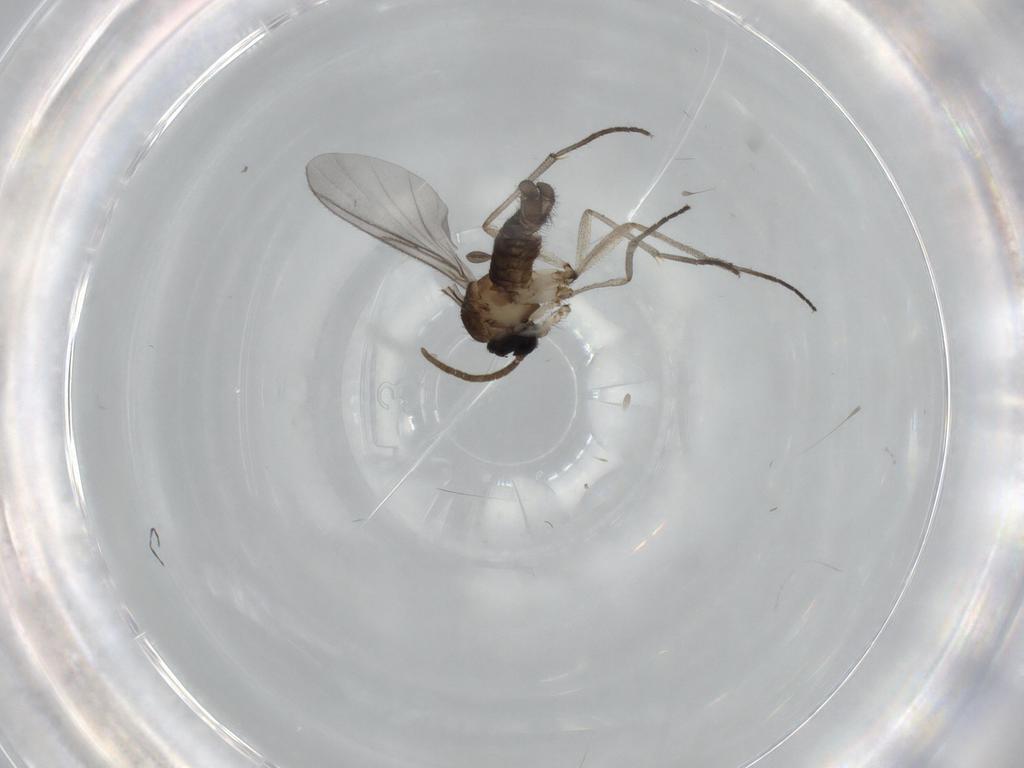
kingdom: Animalia
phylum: Arthropoda
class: Insecta
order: Diptera
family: Sciaridae
